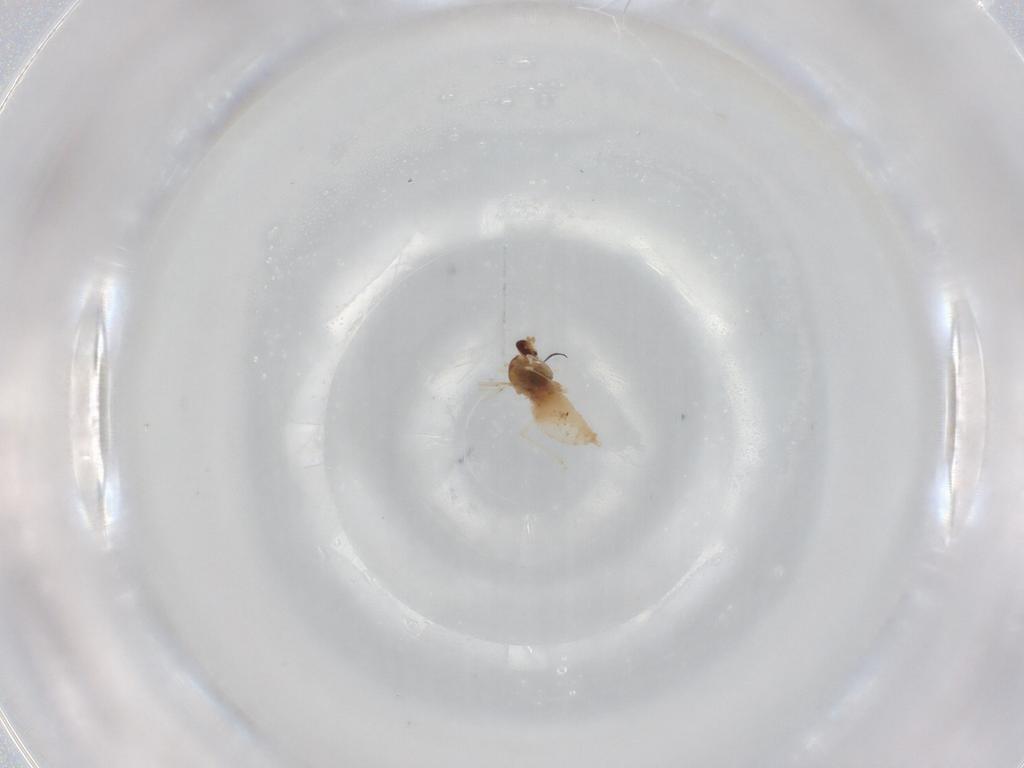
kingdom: Animalia
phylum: Arthropoda
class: Insecta
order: Diptera
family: Cecidomyiidae
